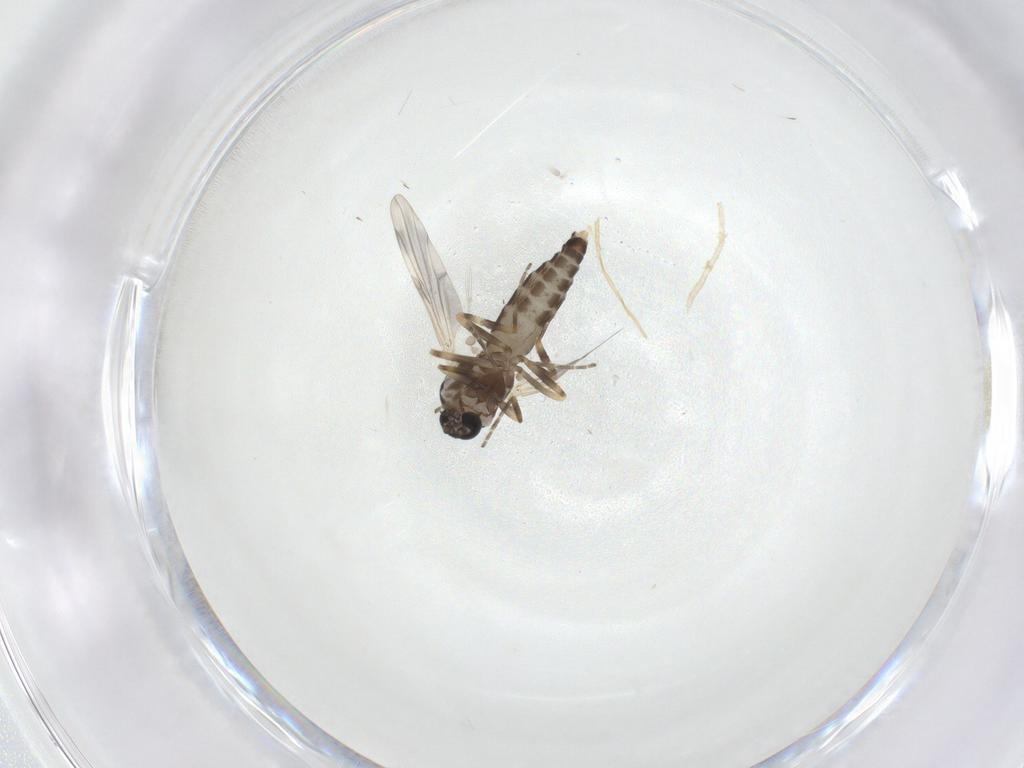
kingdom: Animalia
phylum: Arthropoda
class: Insecta
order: Diptera
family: Ceratopogonidae
